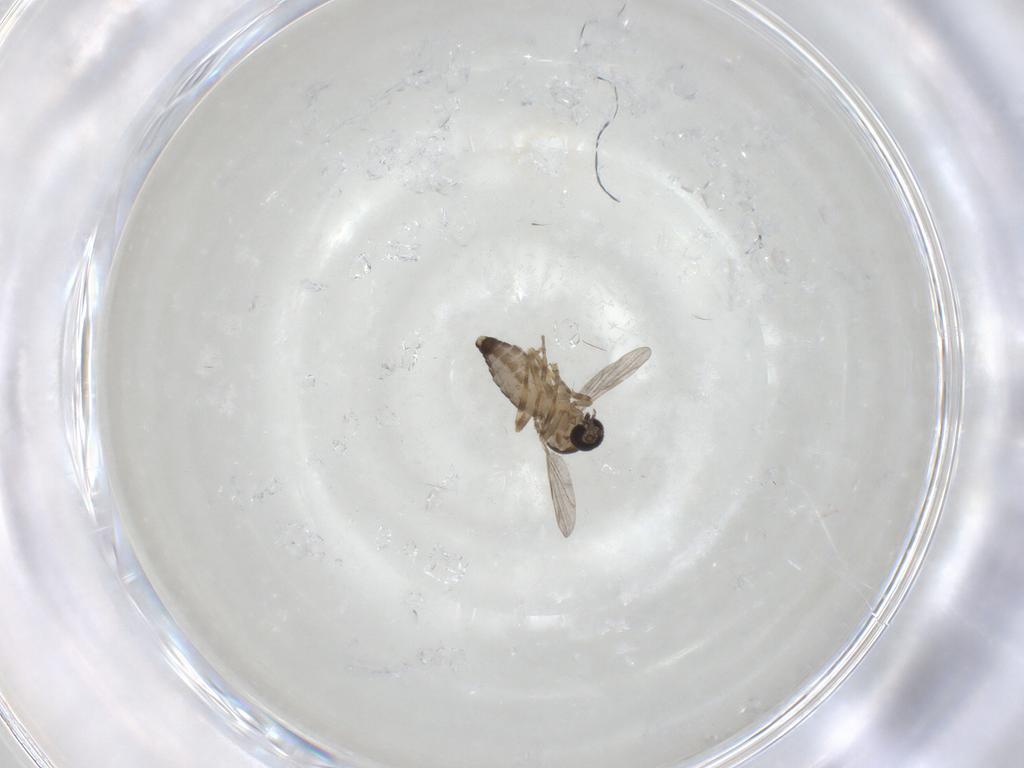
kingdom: Animalia
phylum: Arthropoda
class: Insecta
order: Diptera
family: Ceratopogonidae
